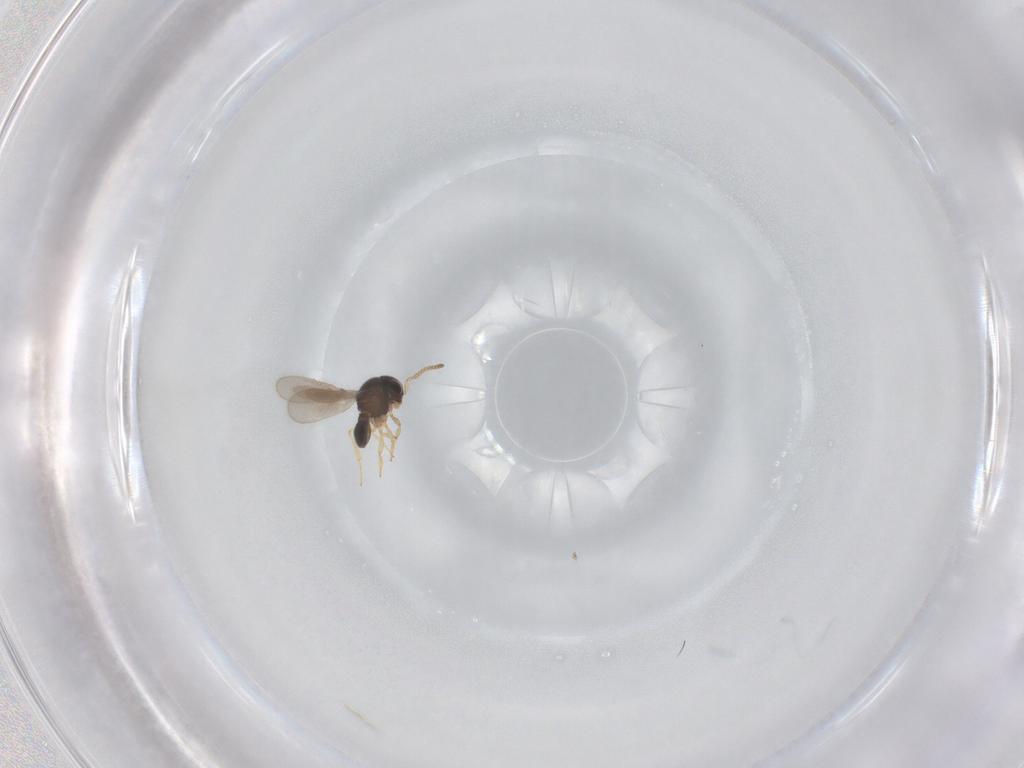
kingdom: Animalia
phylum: Arthropoda
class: Insecta
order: Hymenoptera
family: Scelionidae
